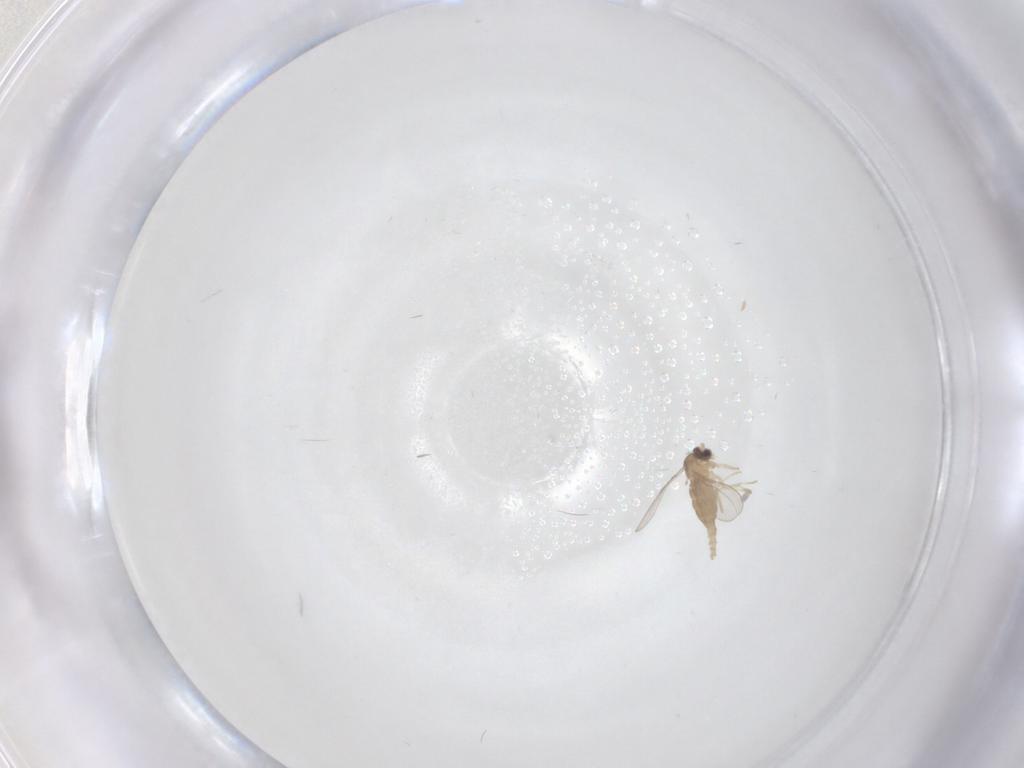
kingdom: Animalia
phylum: Arthropoda
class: Insecta
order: Diptera
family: Cecidomyiidae
